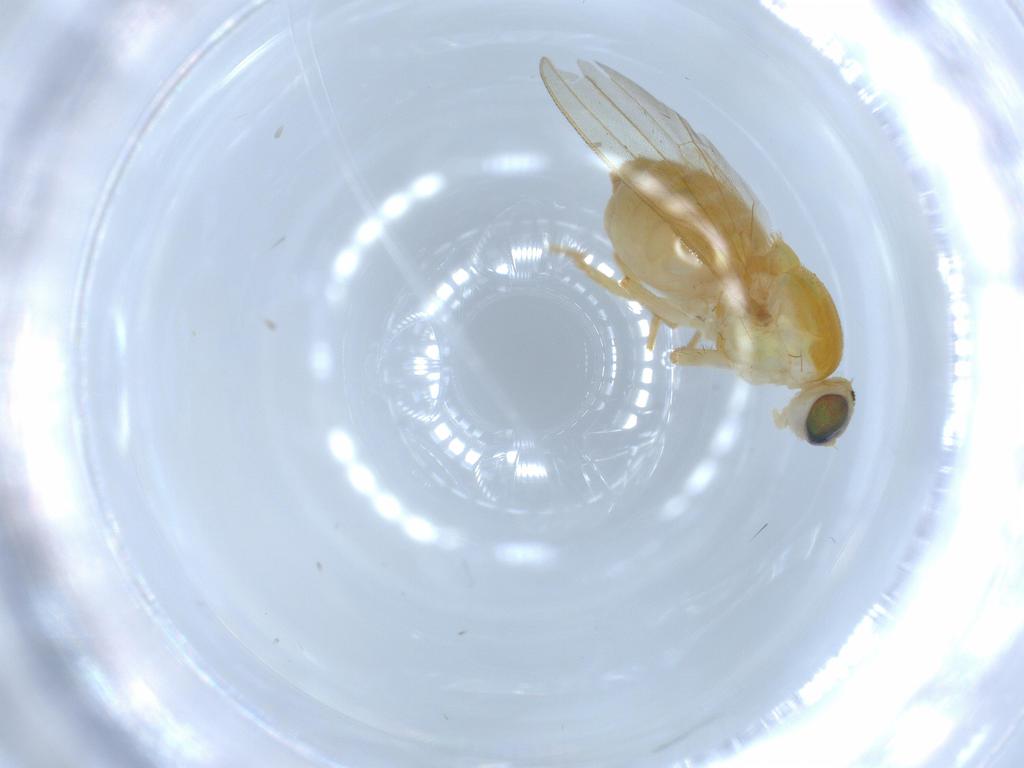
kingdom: Animalia
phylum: Arthropoda
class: Insecta
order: Diptera
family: Chyromyidae
